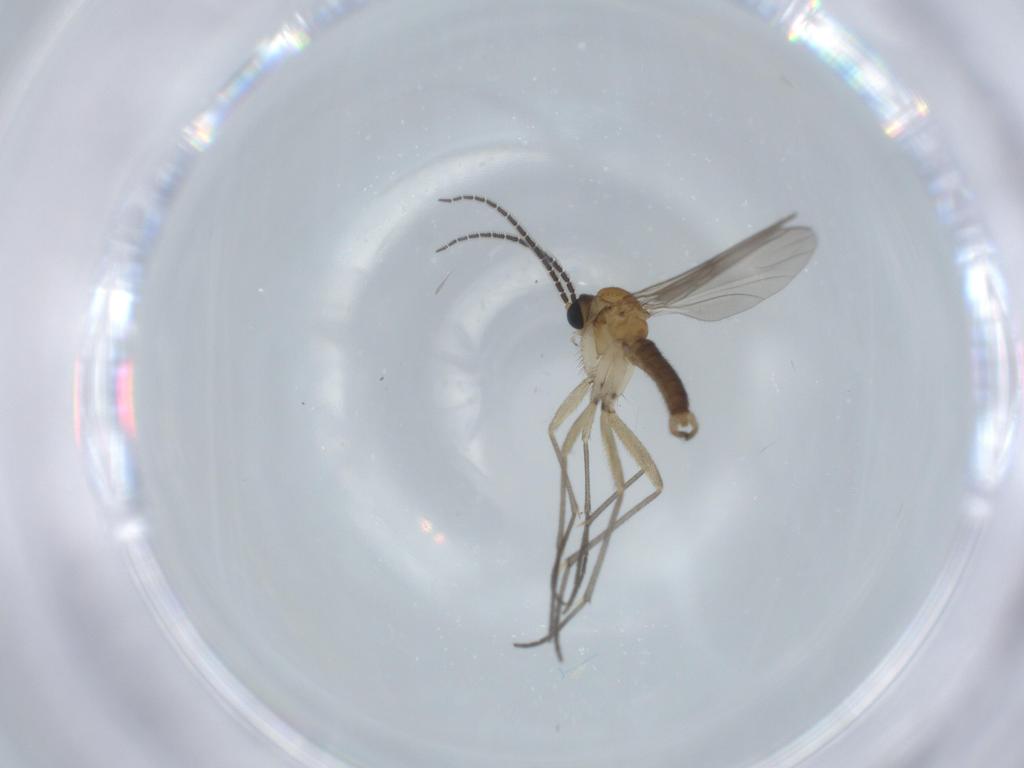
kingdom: Animalia
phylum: Arthropoda
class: Insecta
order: Diptera
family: Sciaridae
